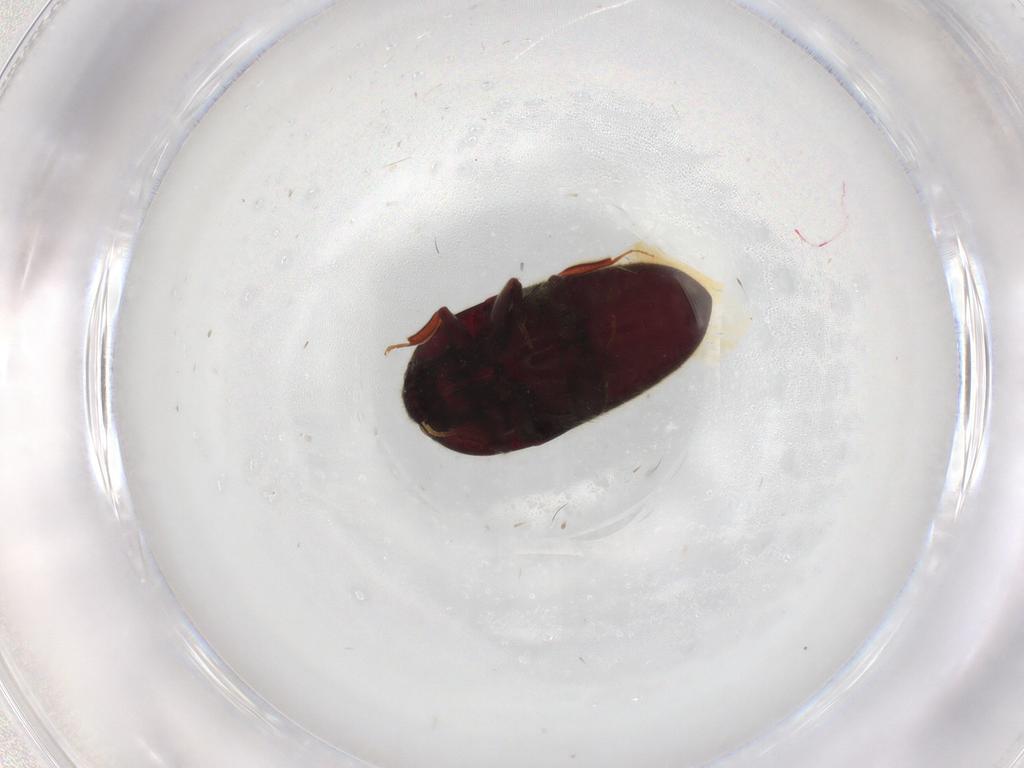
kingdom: Animalia
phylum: Arthropoda
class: Insecta
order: Coleoptera
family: Throscidae
